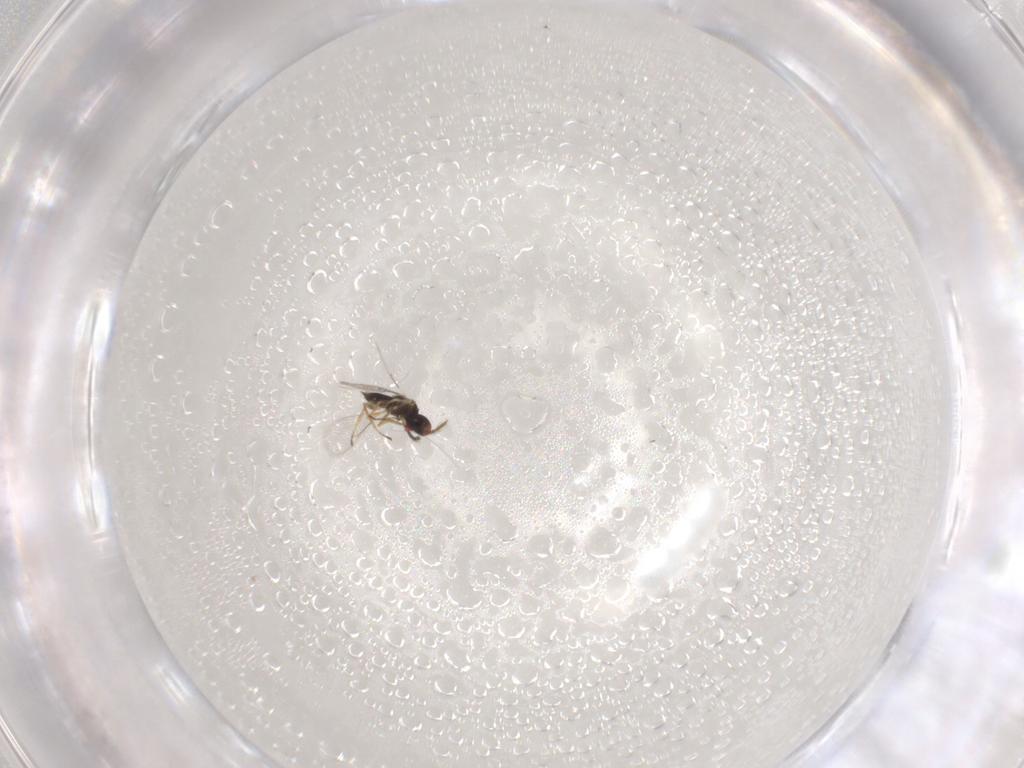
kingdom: Animalia
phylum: Arthropoda
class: Insecta
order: Hymenoptera
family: Eulophidae
